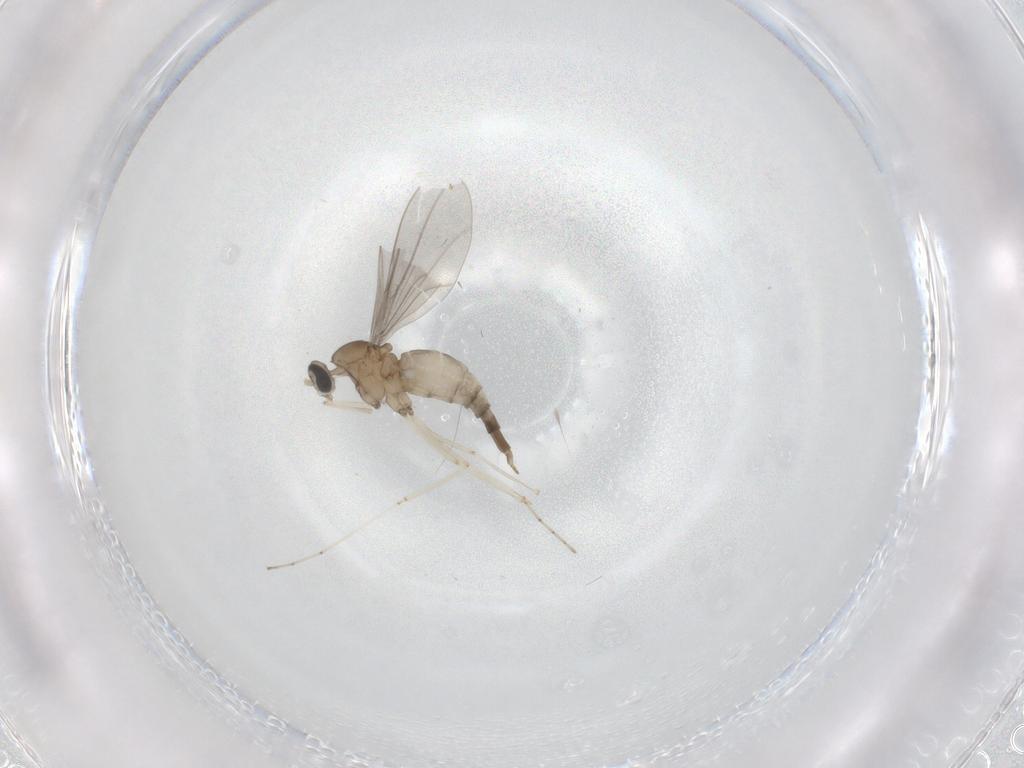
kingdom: Animalia
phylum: Arthropoda
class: Insecta
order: Diptera
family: Cecidomyiidae
